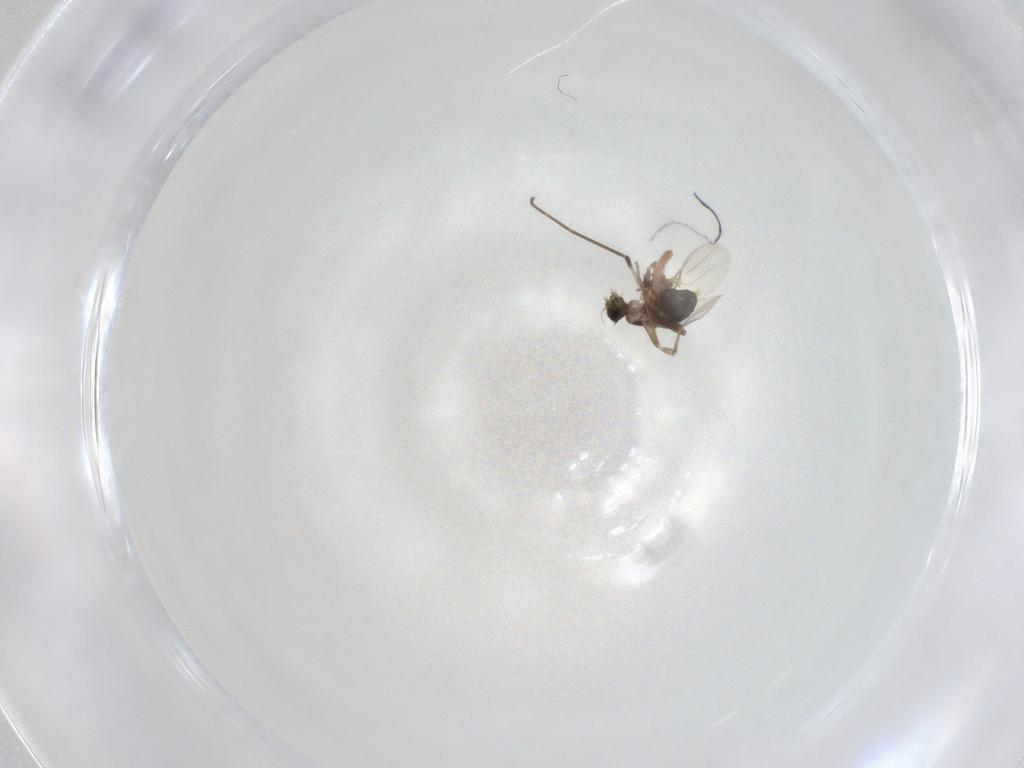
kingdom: Animalia
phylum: Arthropoda
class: Insecta
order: Diptera
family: Chironomidae
